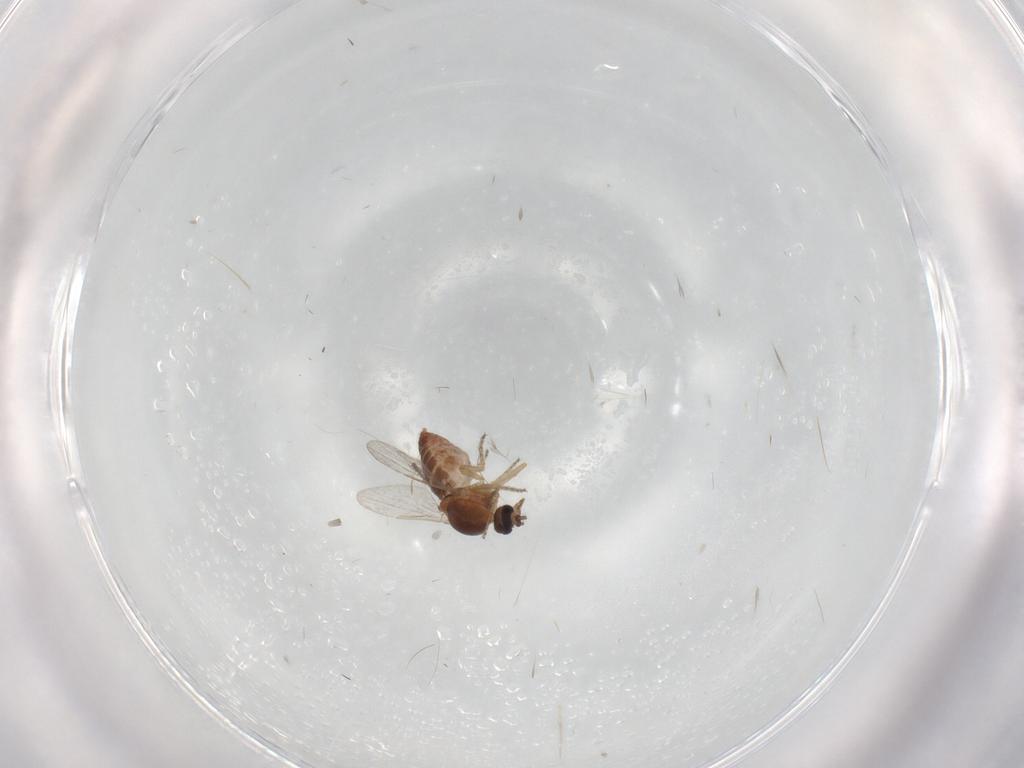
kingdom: Animalia
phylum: Arthropoda
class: Insecta
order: Diptera
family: Ceratopogonidae
